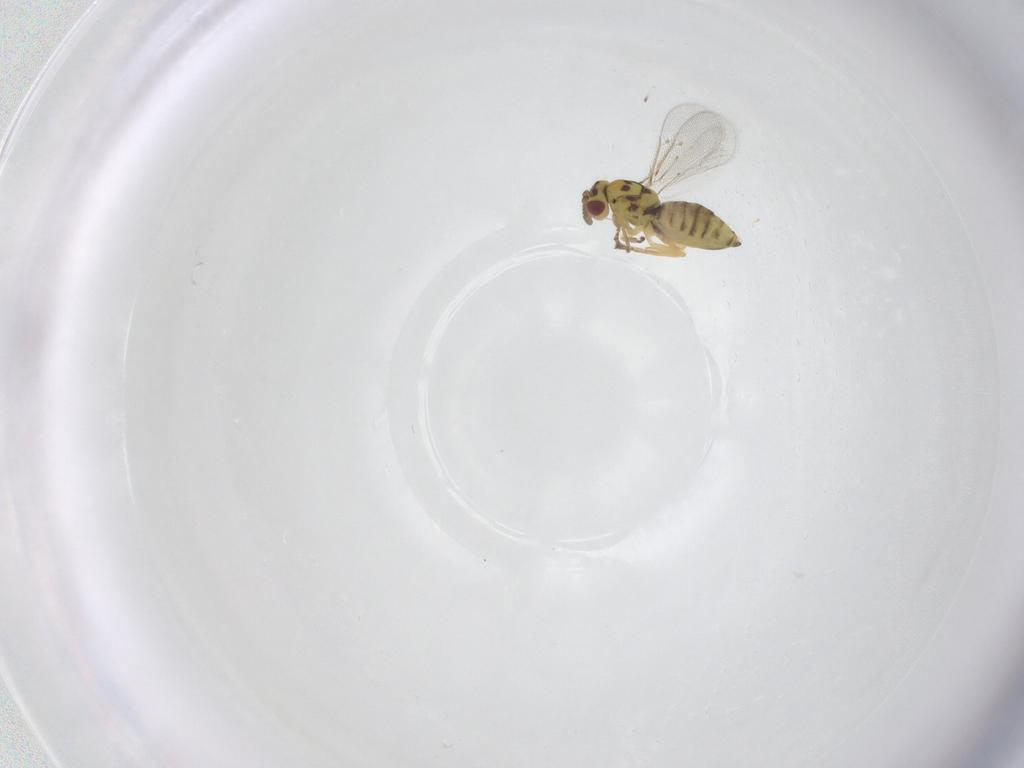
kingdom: Animalia
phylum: Arthropoda
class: Insecta
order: Hymenoptera
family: Eulophidae
